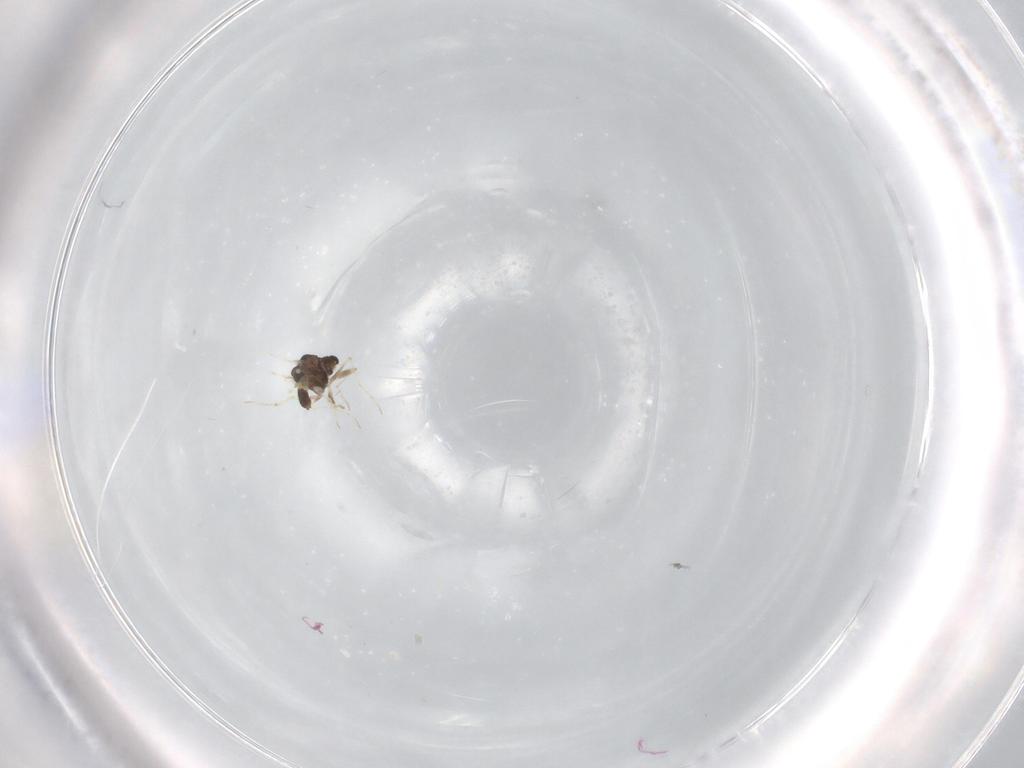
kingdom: Animalia
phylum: Arthropoda
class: Insecta
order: Diptera
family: Chironomidae
